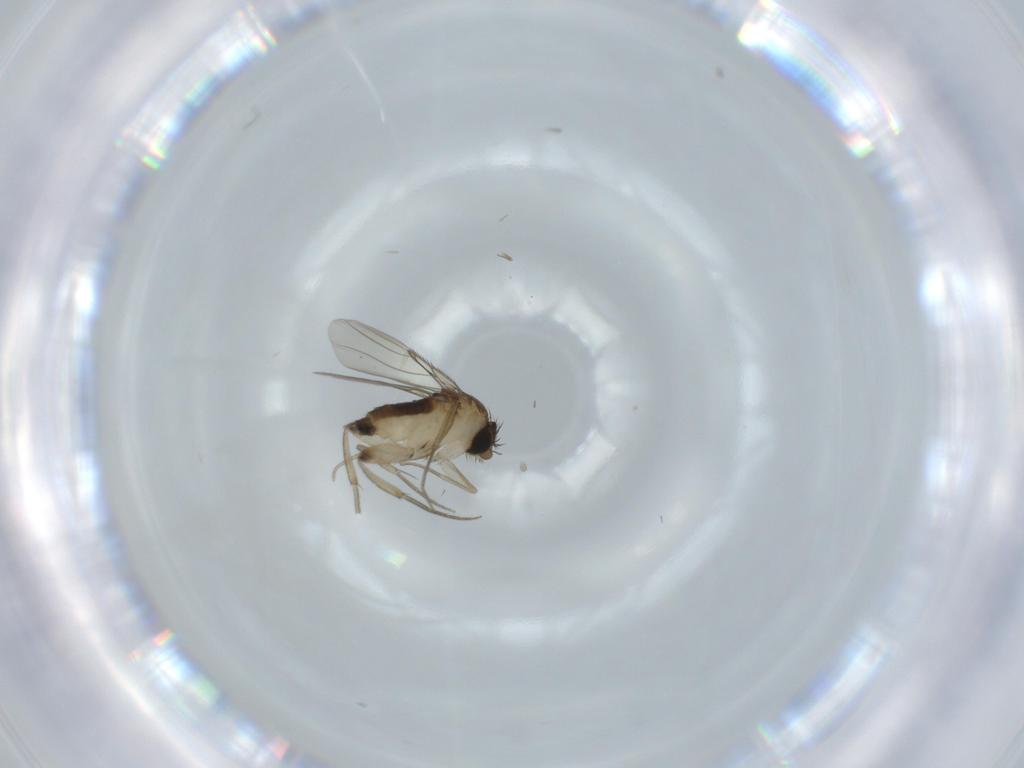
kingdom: Animalia
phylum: Arthropoda
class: Insecta
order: Diptera
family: Phoridae
